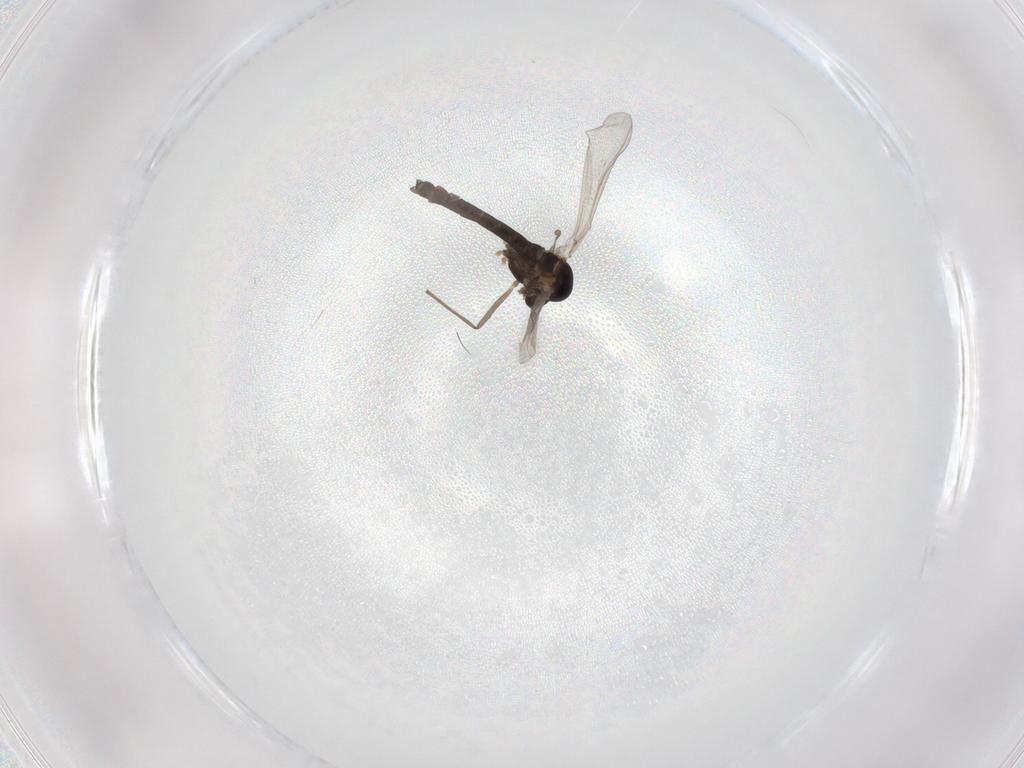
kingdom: Animalia
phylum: Arthropoda
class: Insecta
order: Diptera
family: Chironomidae
